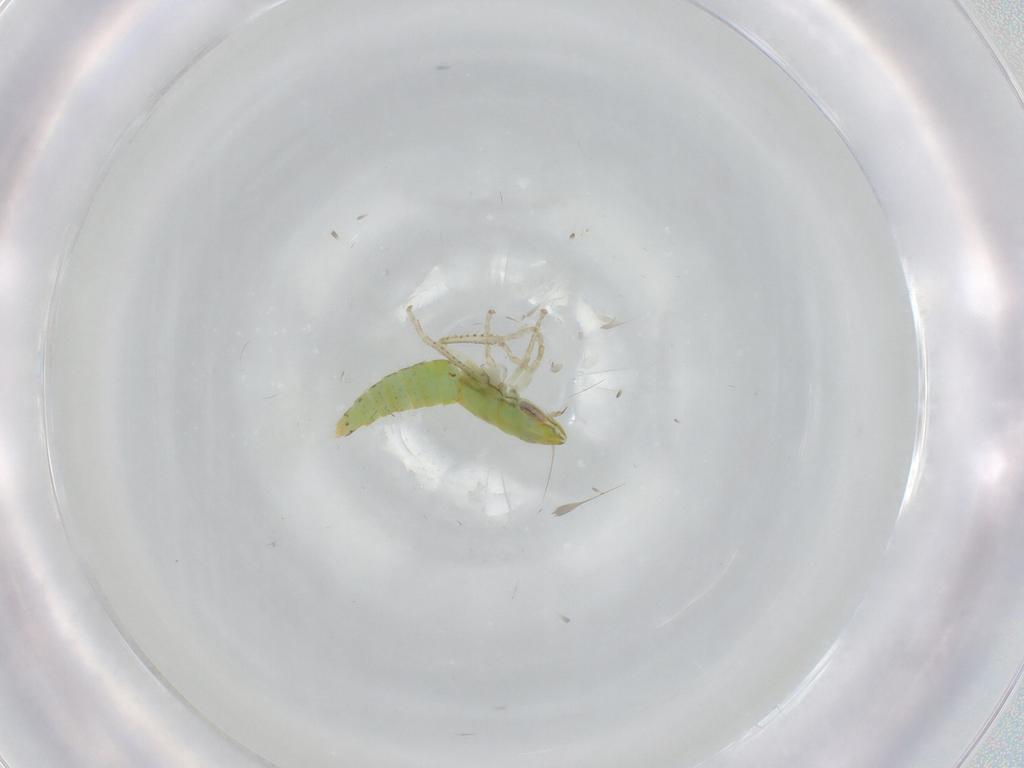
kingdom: Animalia
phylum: Arthropoda
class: Insecta
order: Hemiptera
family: Cicadellidae
